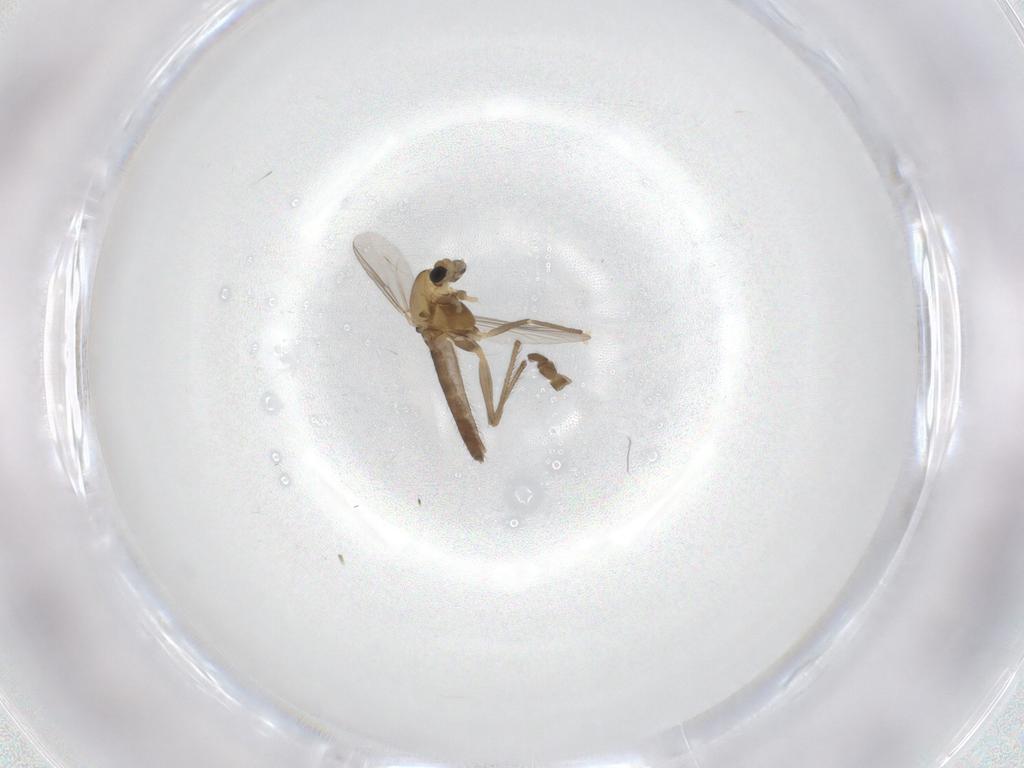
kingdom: Animalia
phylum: Arthropoda
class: Insecta
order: Diptera
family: Chironomidae
